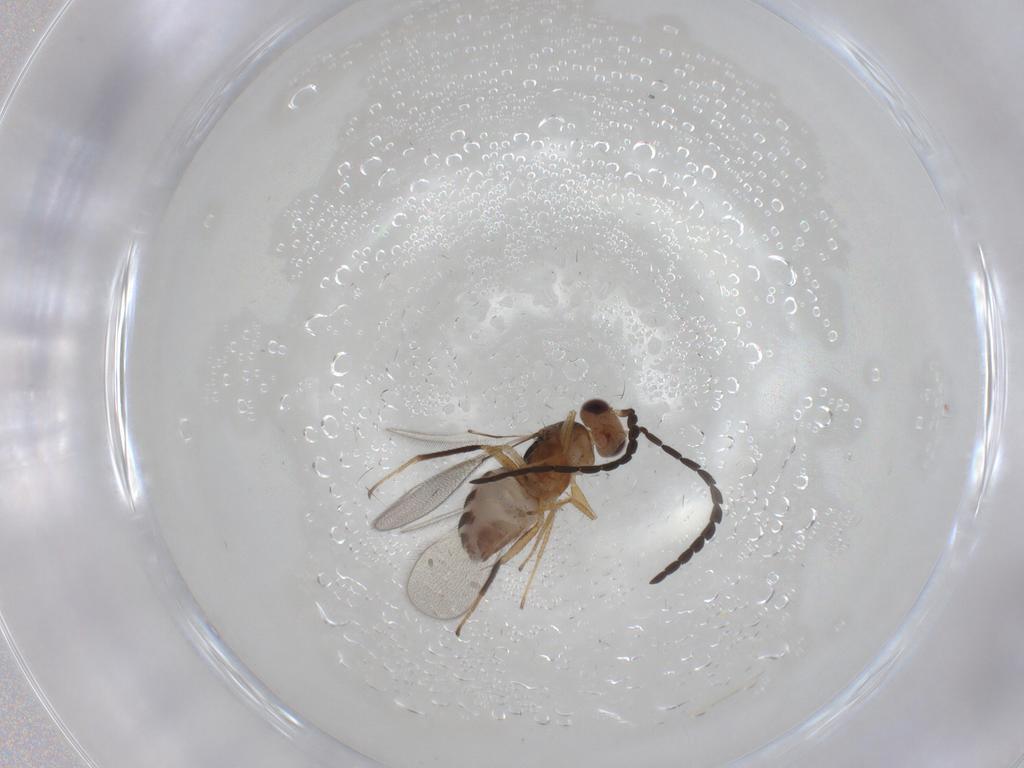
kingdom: Animalia
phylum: Arthropoda
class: Insecta
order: Hymenoptera
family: Mymaridae
